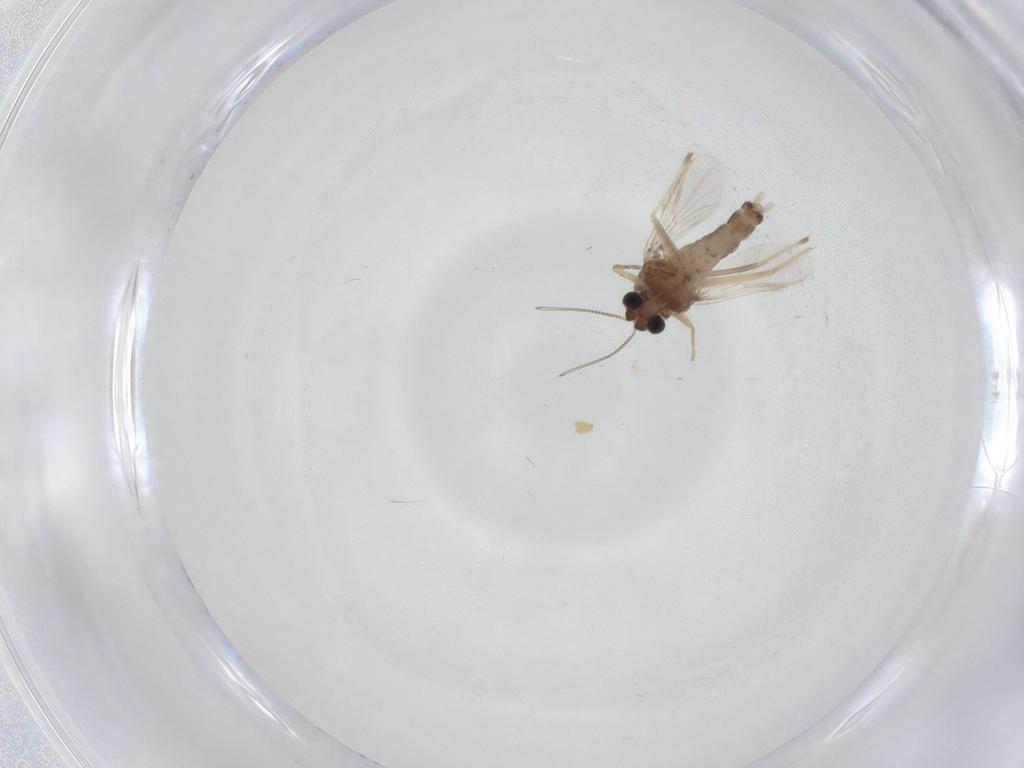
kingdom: Animalia
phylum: Arthropoda
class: Insecta
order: Diptera
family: Chironomidae
